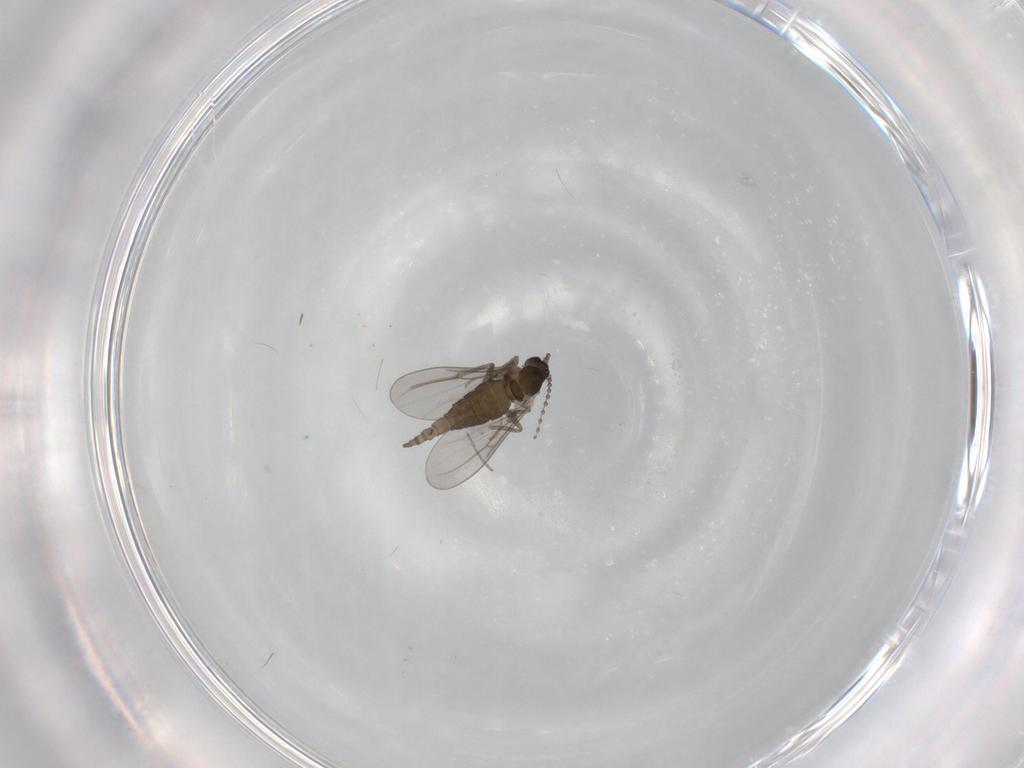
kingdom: Animalia
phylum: Arthropoda
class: Insecta
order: Diptera
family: Cecidomyiidae
